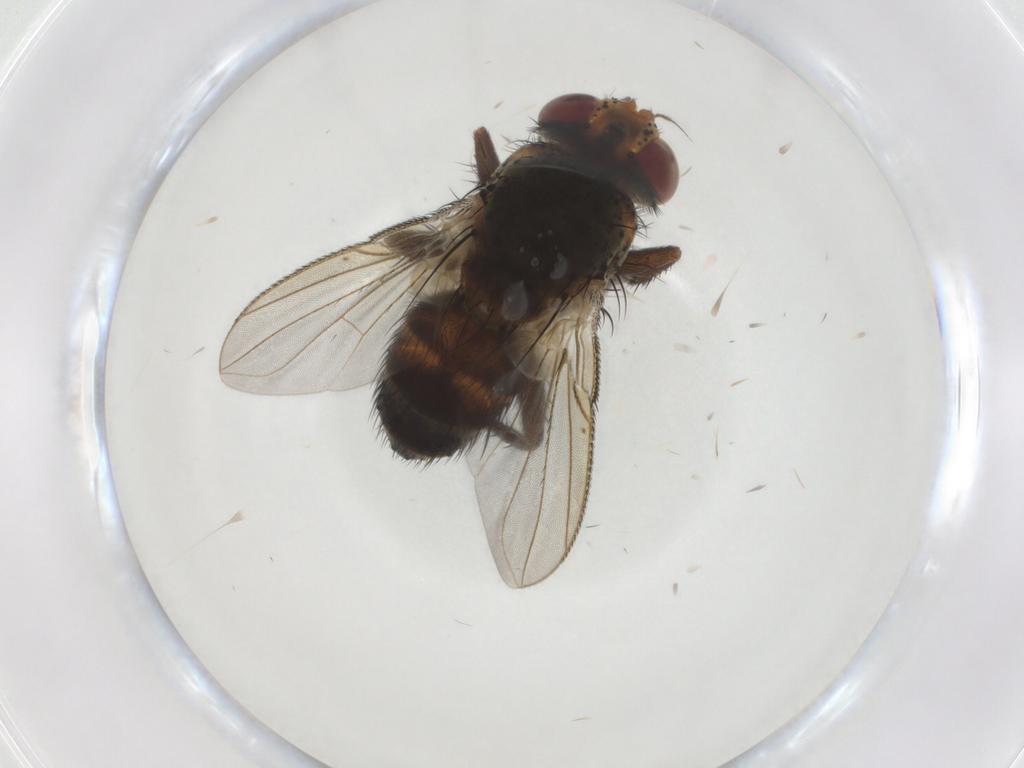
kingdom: Animalia
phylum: Arthropoda
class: Insecta
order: Diptera
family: Tachinidae
